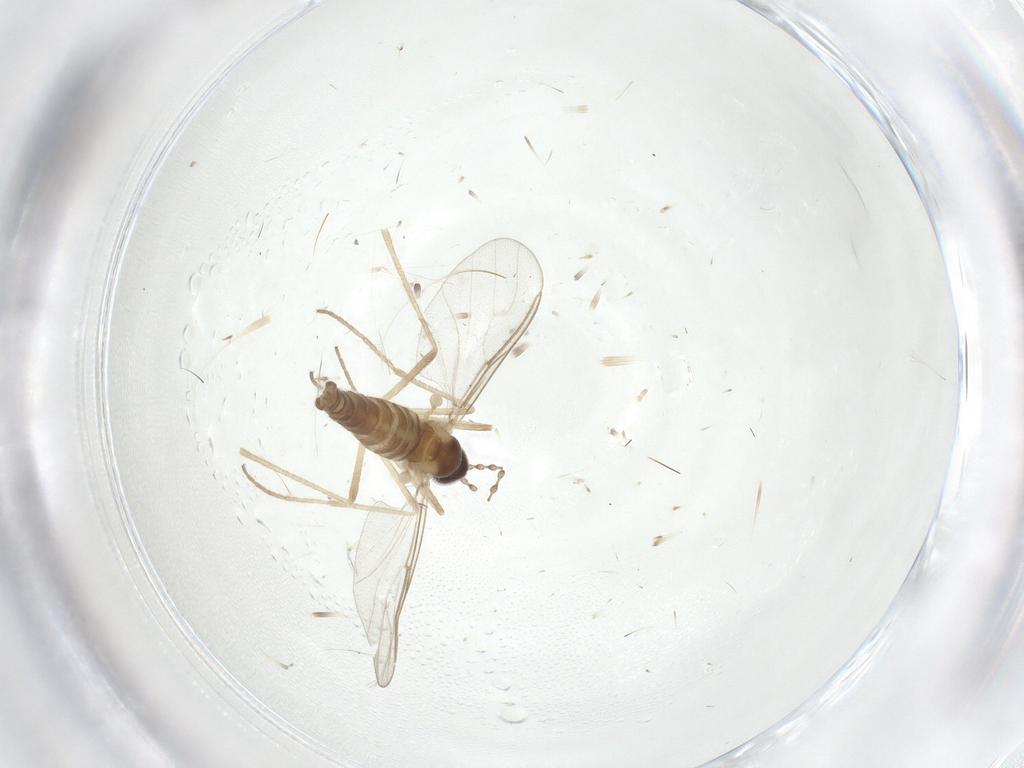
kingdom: Animalia
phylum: Arthropoda
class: Insecta
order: Diptera
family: Cecidomyiidae
